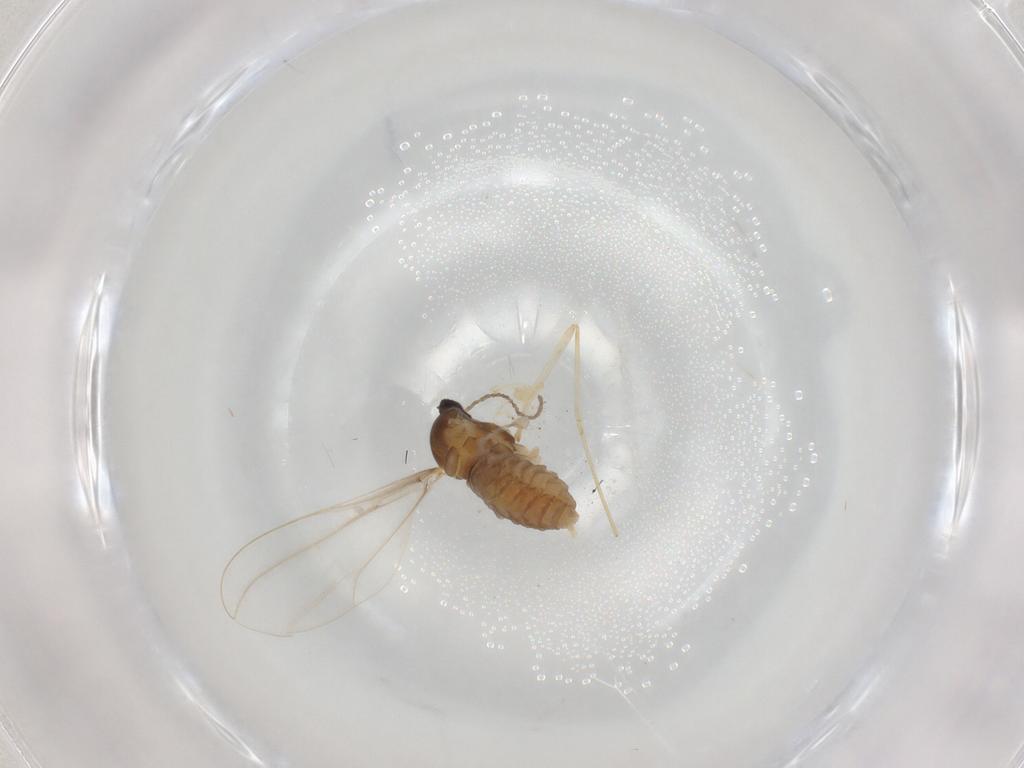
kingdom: Animalia
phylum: Arthropoda
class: Insecta
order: Diptera
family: Cecidomyiidae
